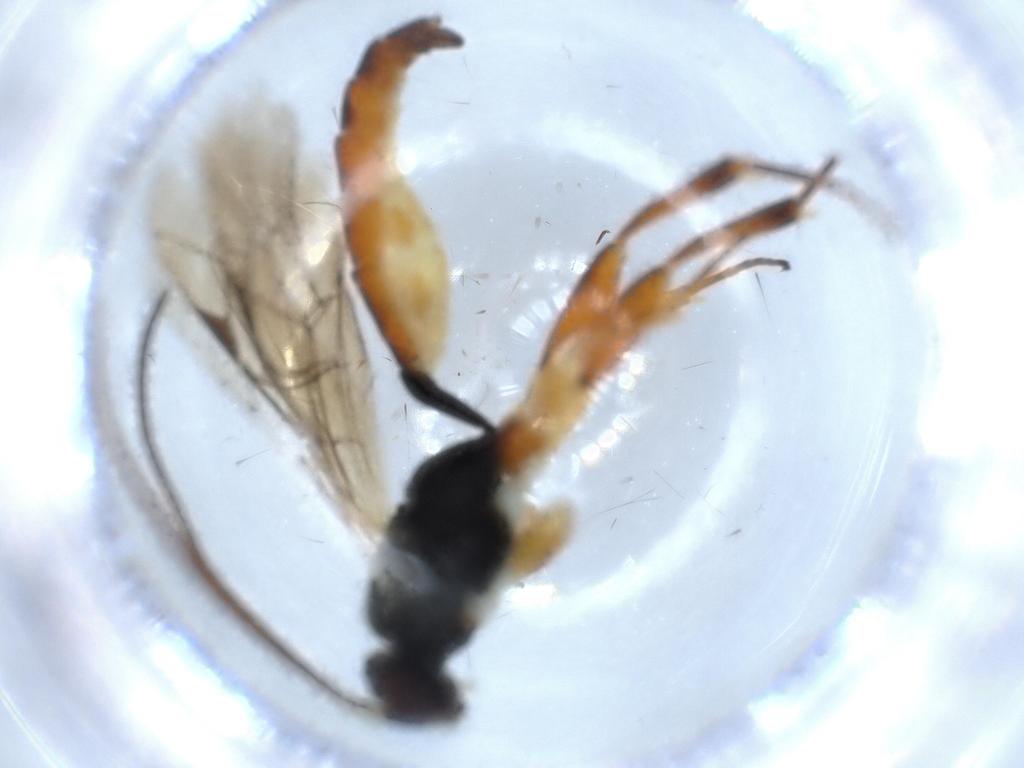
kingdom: Animalia
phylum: Arthropoda
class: Insecta
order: Hymenoptera
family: Ichneumonidae
